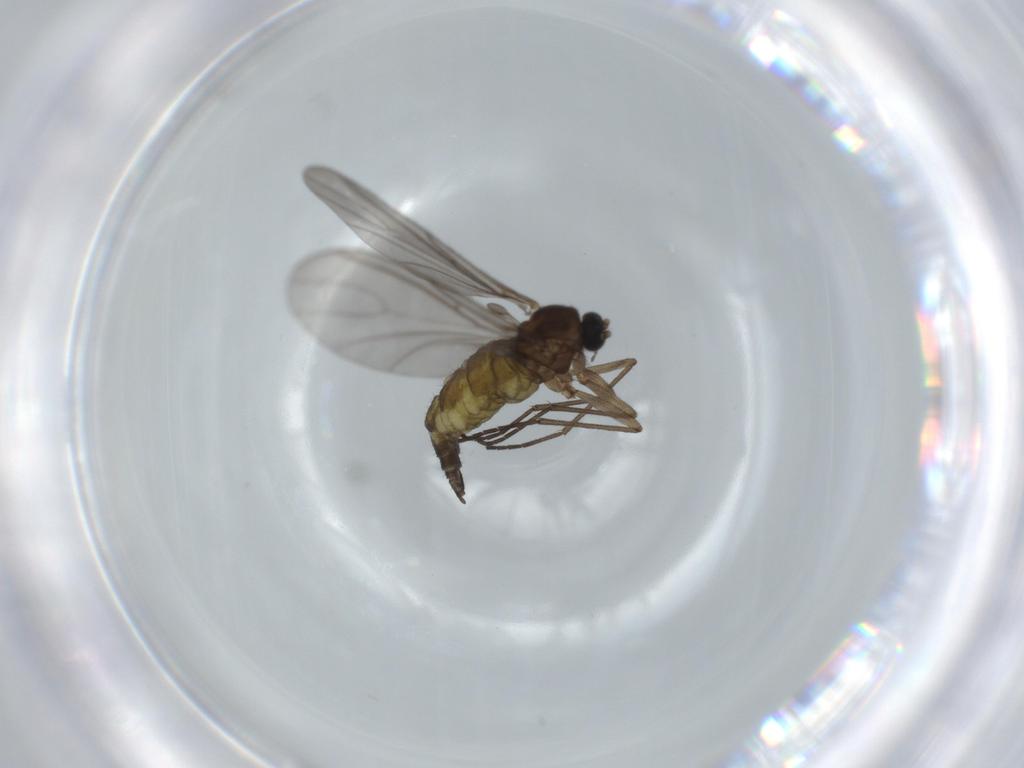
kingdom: Animalia
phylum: Arthropoda
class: Insecta
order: Diptera
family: Sciaridae
